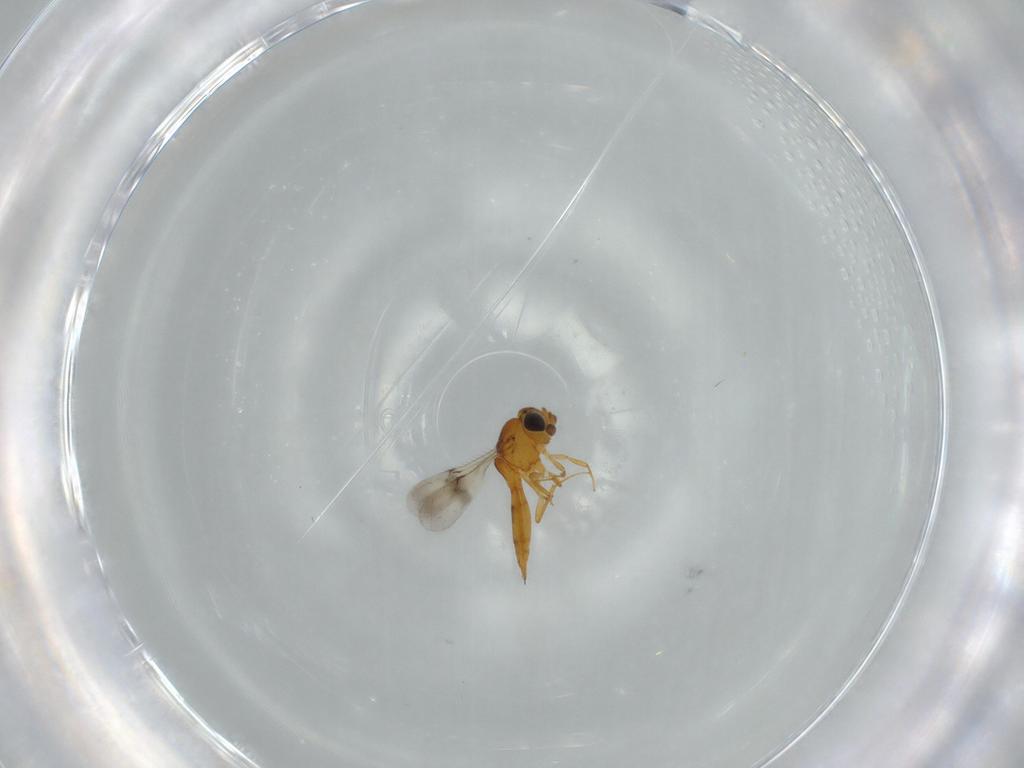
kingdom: Animalia
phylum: Arthropoda
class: Insecta
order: Hymenoptera
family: Scelionidae
